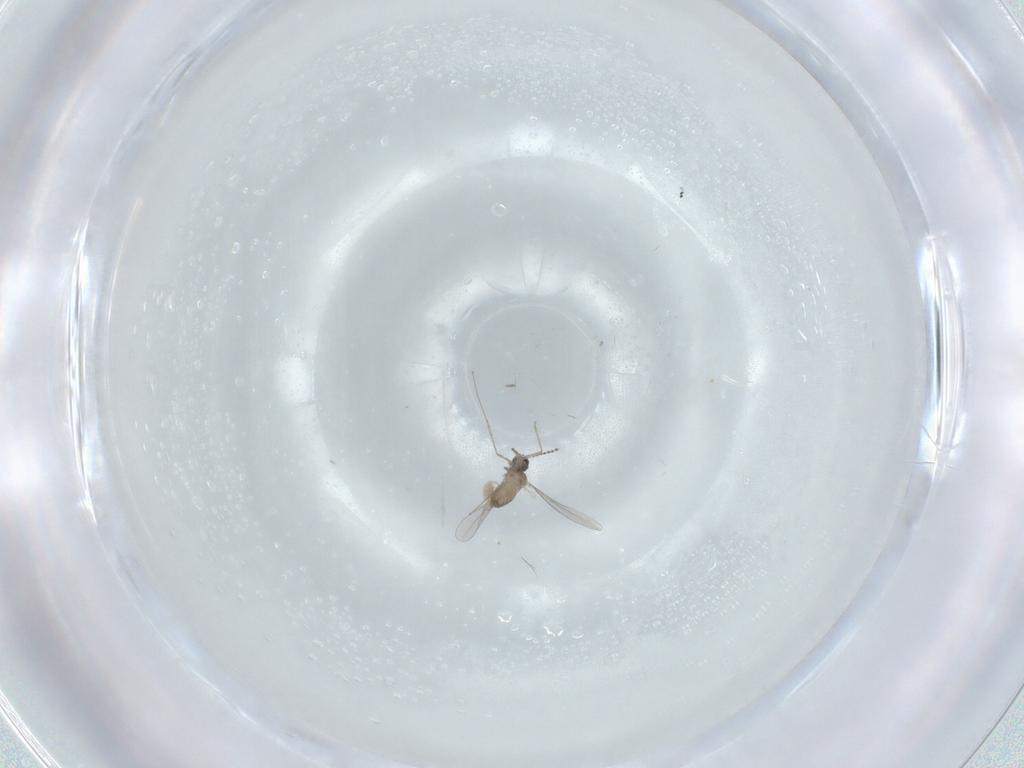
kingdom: Animalia
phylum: Arthropoda
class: Insecta
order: Diptera
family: Cecidomyiidae
